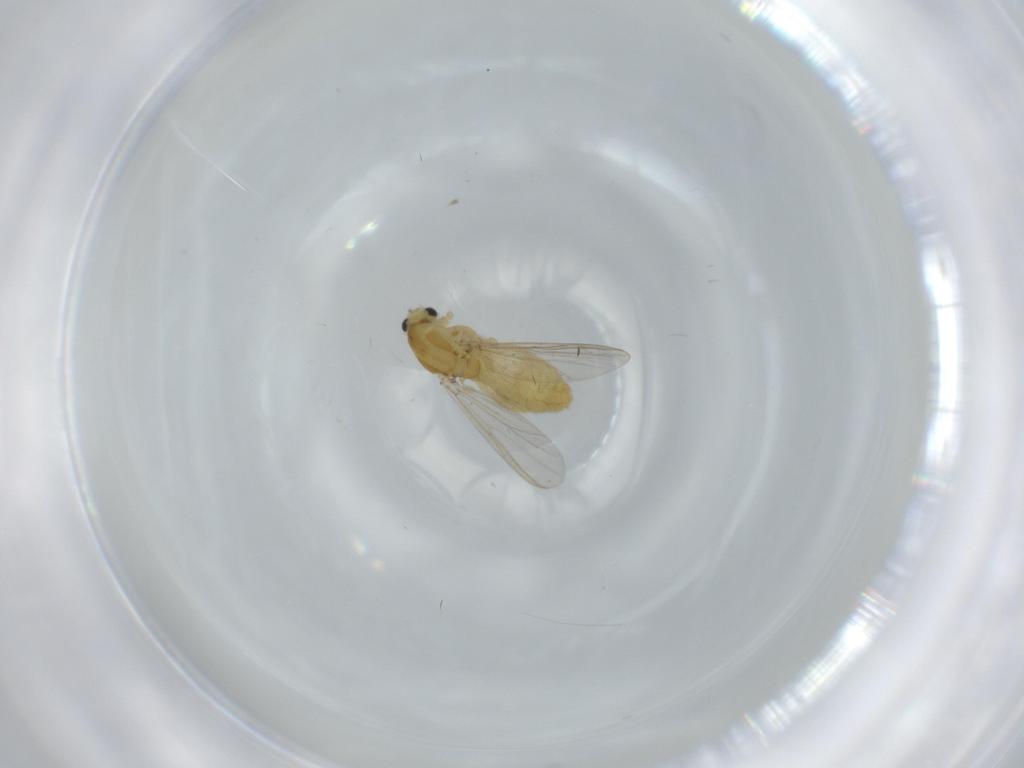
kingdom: Animalia
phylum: Arthropoda
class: Insecta
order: Diptera
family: Chironomidae
